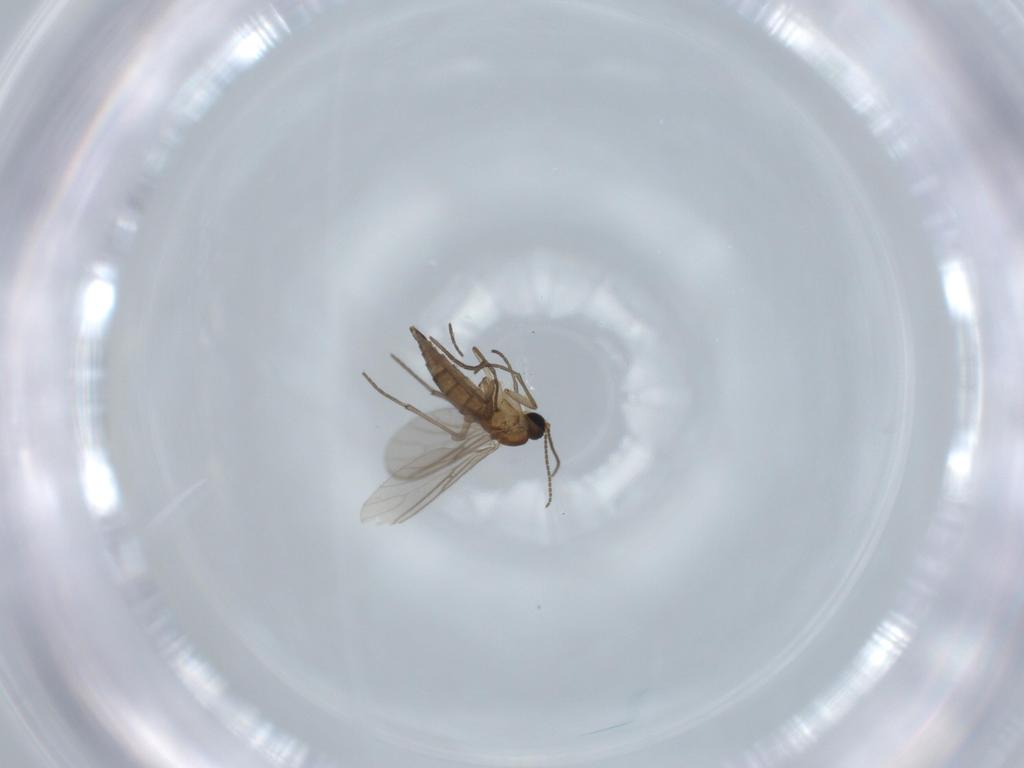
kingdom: Animalia
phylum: Arthropoda
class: Insecta
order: Diptera
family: Sciaridae
